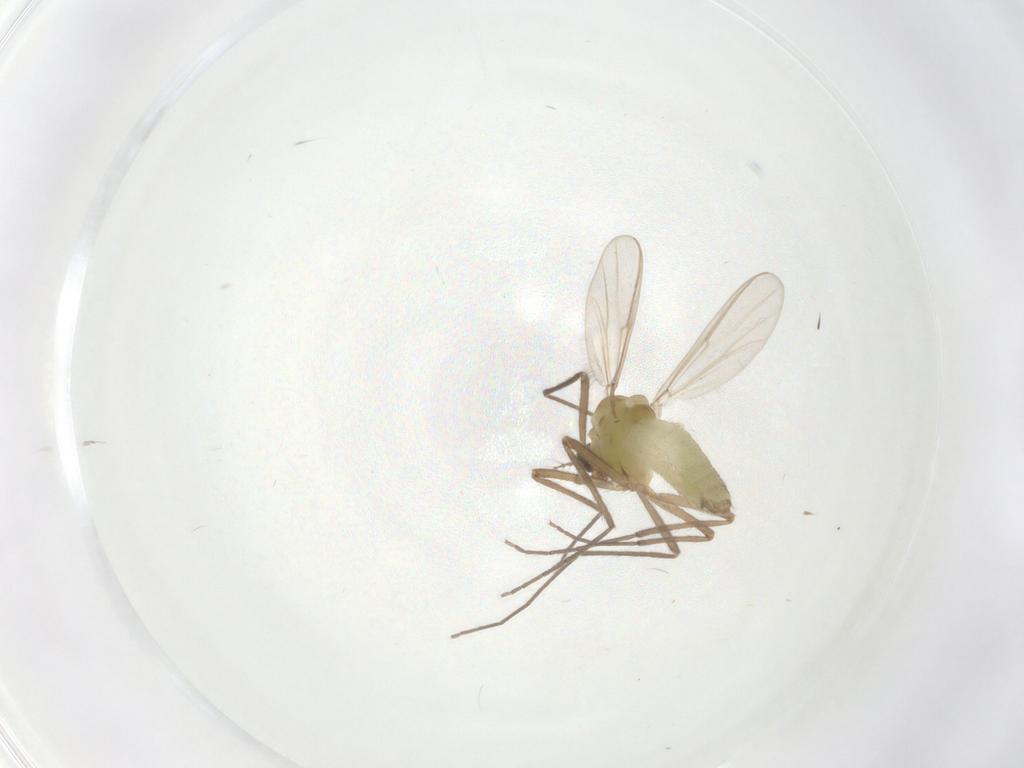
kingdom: Animalia
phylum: Arthropoda
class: Insecta
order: Diptera
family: Chironomidae
